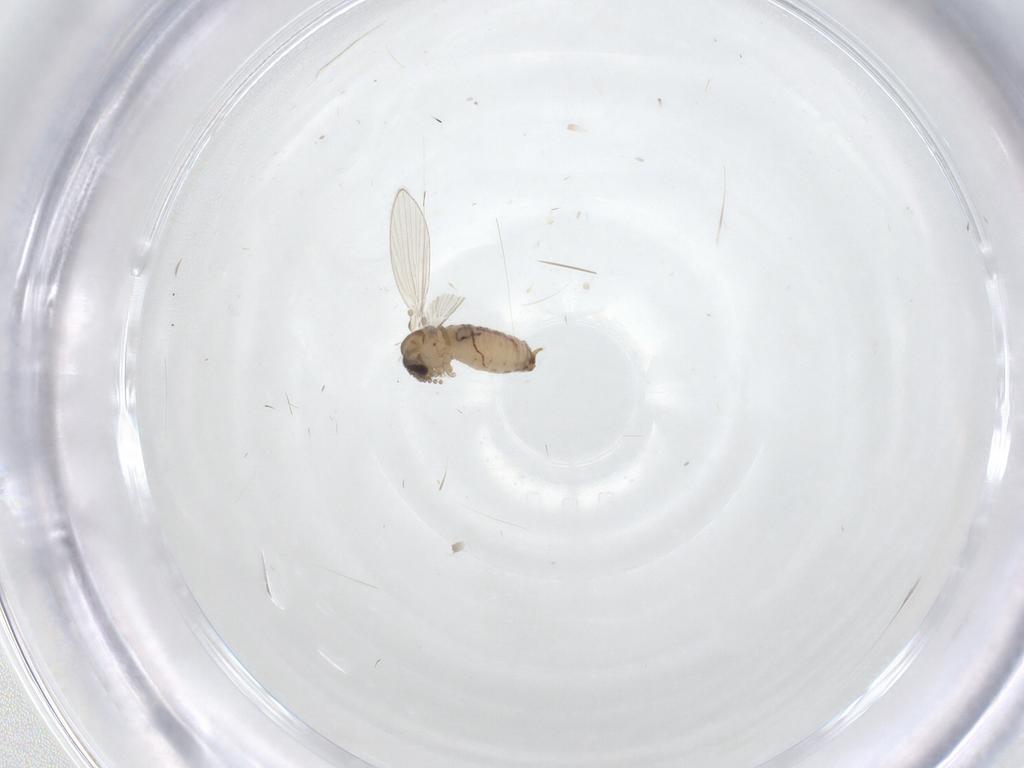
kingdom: Animalia
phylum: Arthropoda
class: Insecta
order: Diptera
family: Psychodidae
